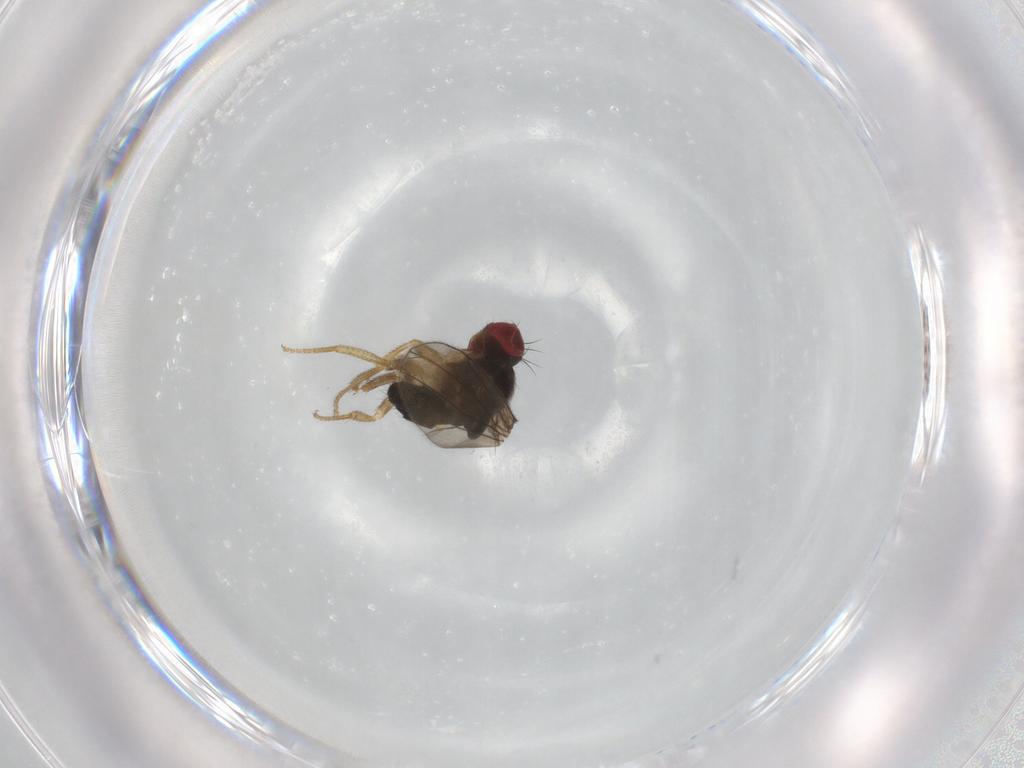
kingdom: Animalia
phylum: Arthropoda
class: Insecta
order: Diptera
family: Drosophilidae
